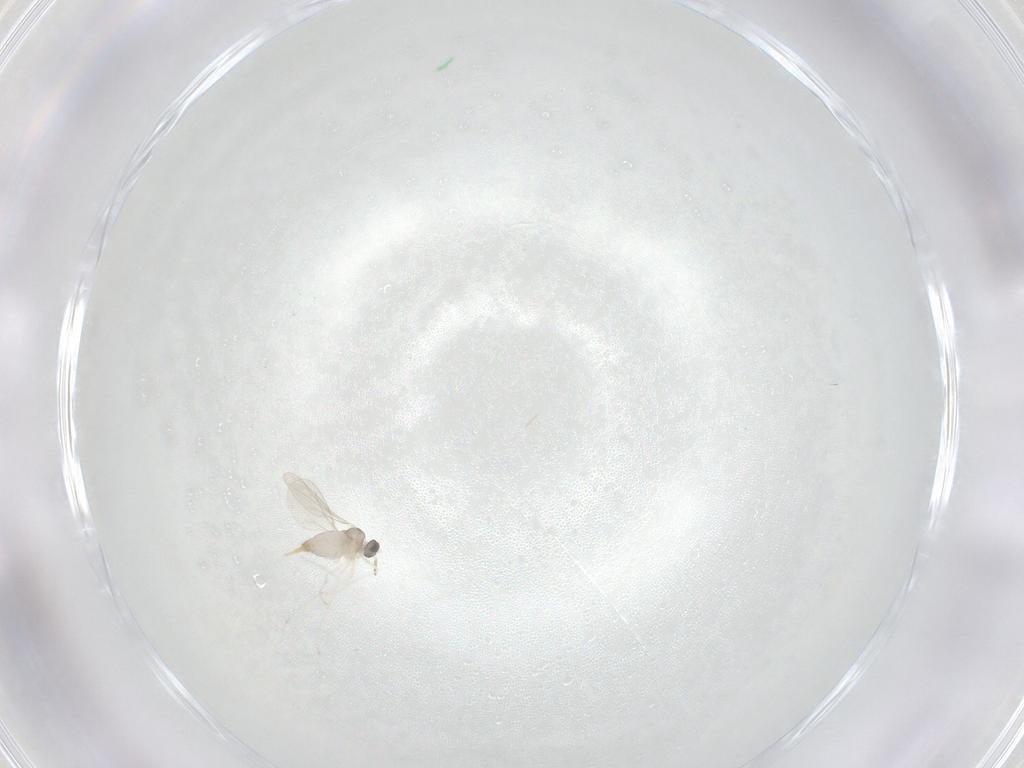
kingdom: Animalia
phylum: Arthropoda
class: Insecta
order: Diptera
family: Cecidomyiidae
